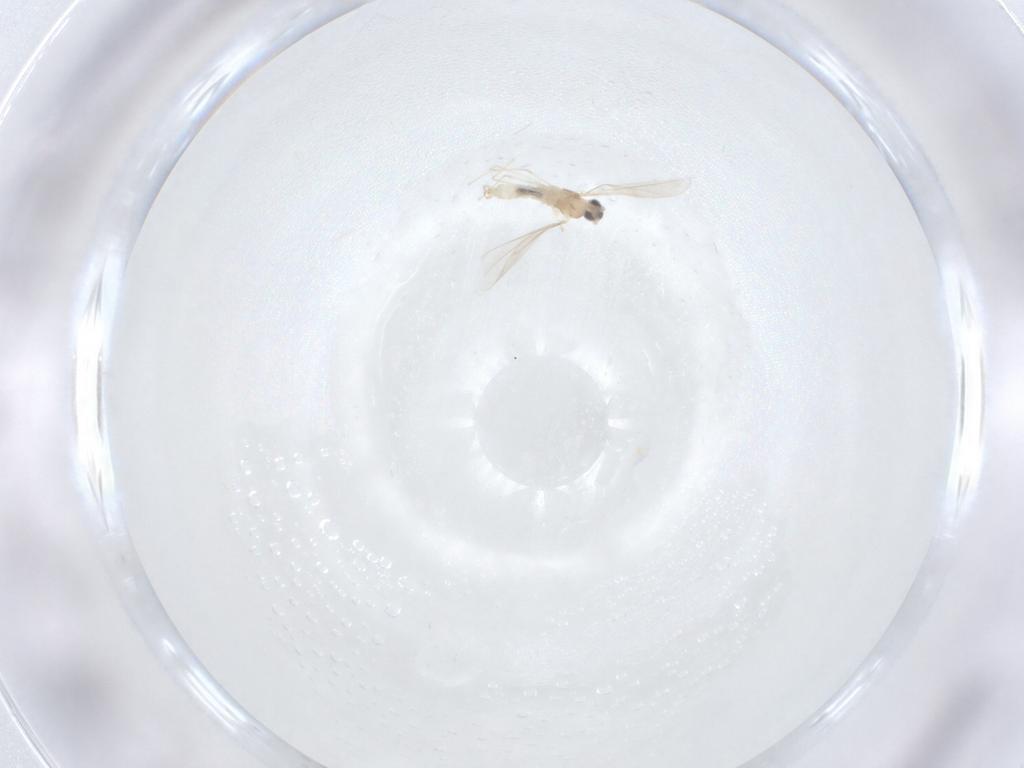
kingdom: Animalia
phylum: Arthropoda
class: Insecta
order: Diptera
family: Cecidomyiidae
